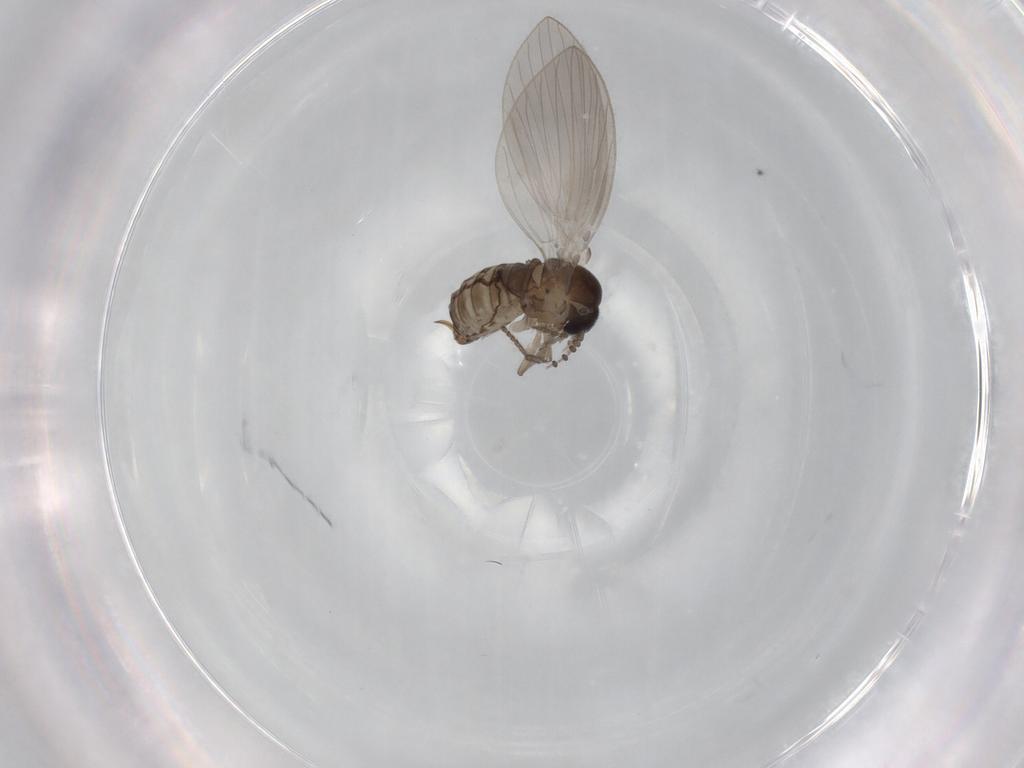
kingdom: Animalia
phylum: Arthropoda
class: Insecta
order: Diptera
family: Psychodidae
